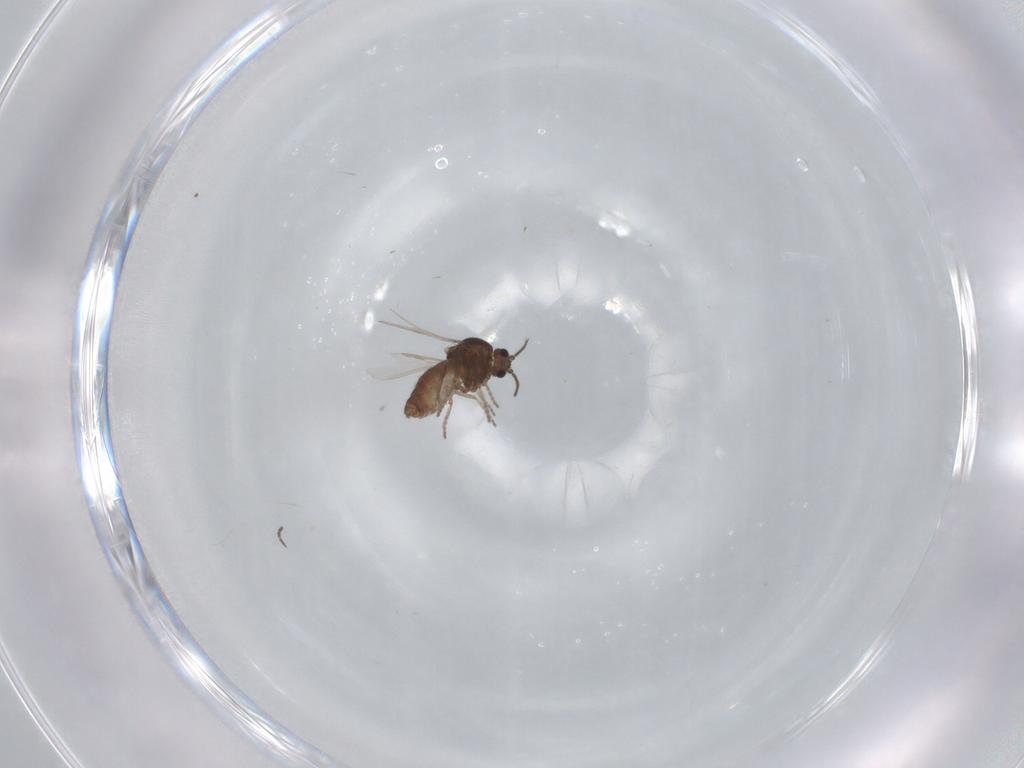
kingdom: Animalia
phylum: Arthropoda
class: Insecta
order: Diptera
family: Ceratopogonidae
